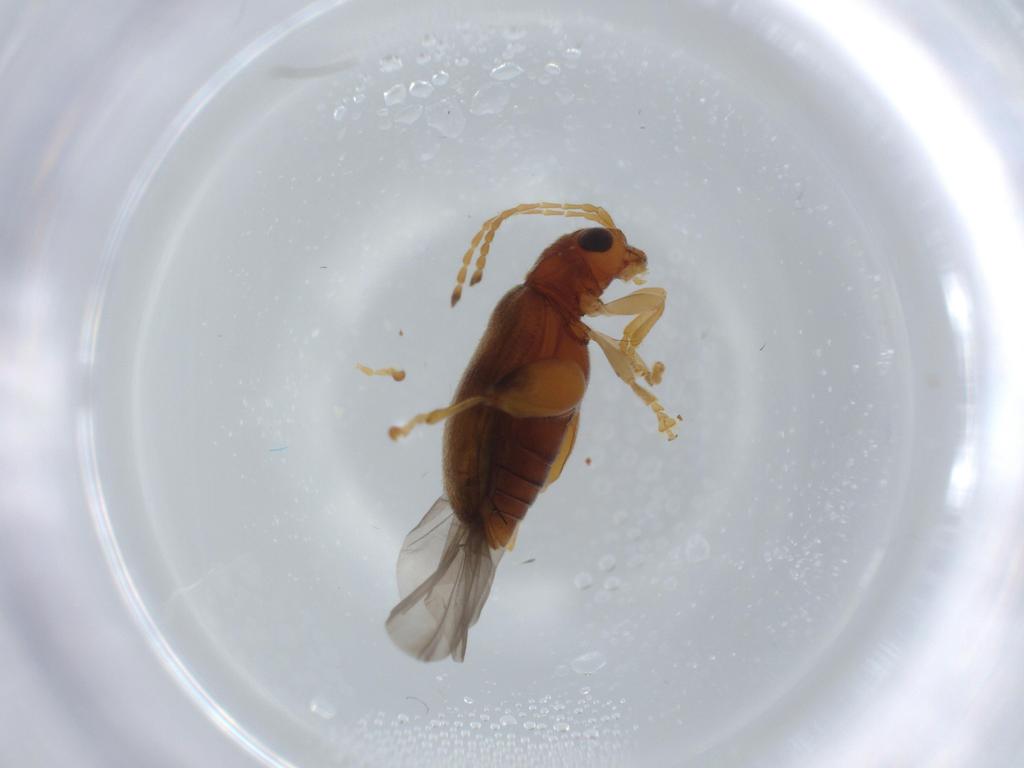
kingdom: Animalia
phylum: Arthropoda
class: Insecta
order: Coleoptera
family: Chrysomelidae
